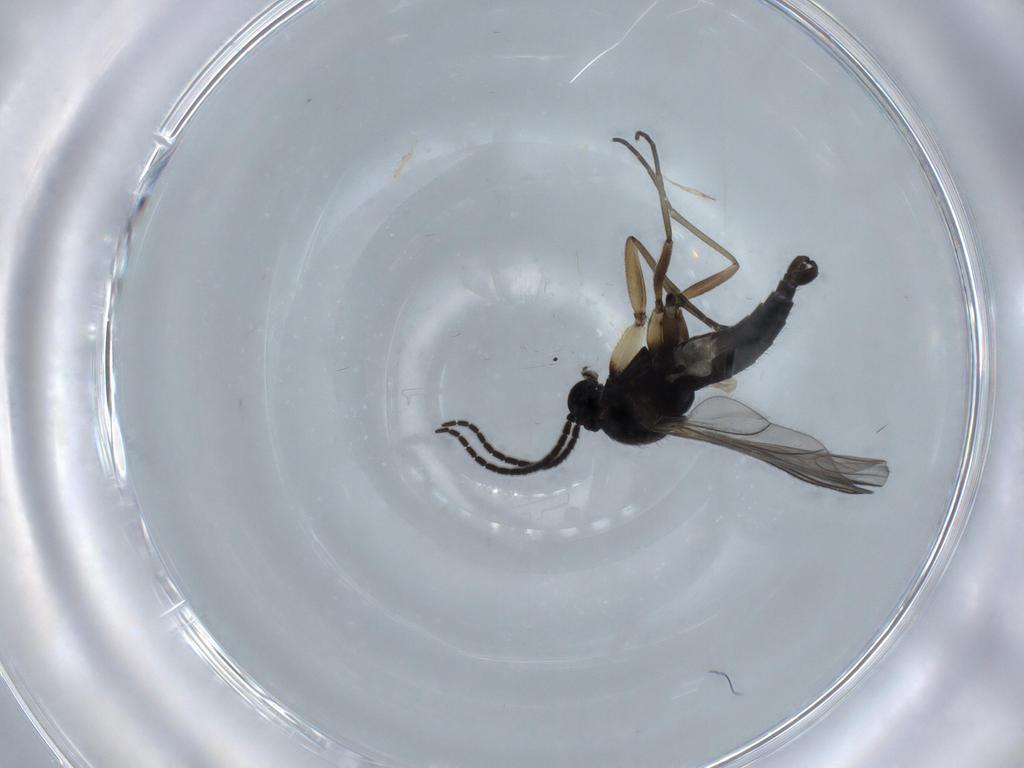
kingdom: Animalia
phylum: Arthropoda
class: Insecta
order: Diptera
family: Sciaridae
